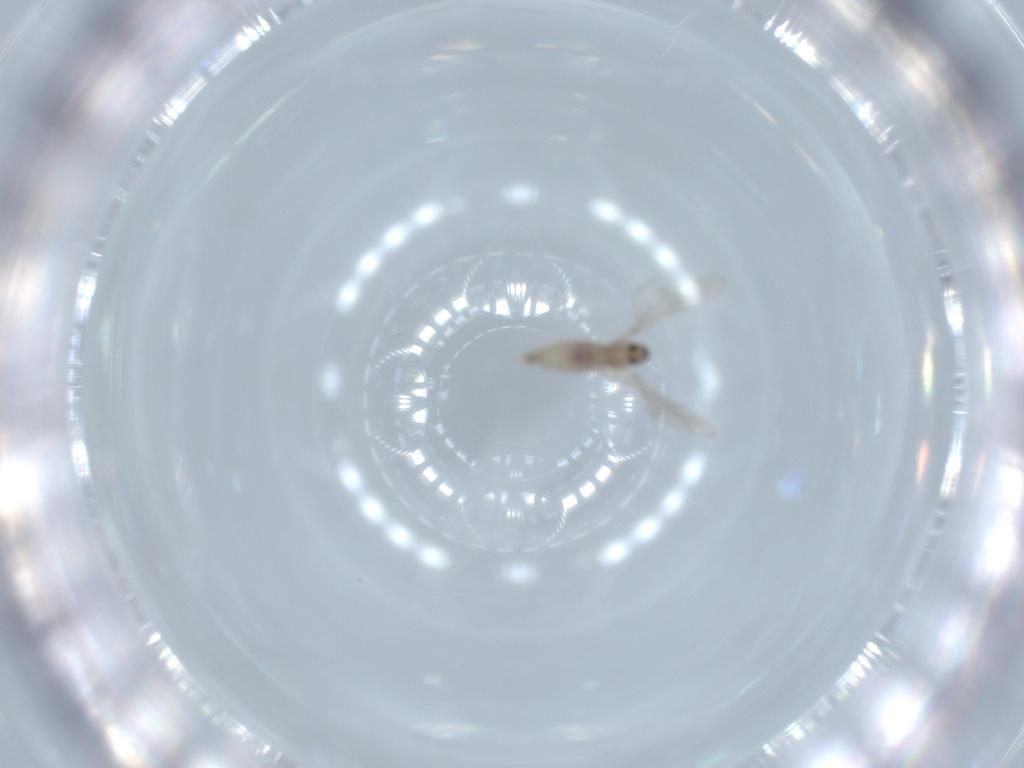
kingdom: Animalia
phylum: Arthropoda
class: Insecta
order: Diptera
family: Cecidomyiidae
